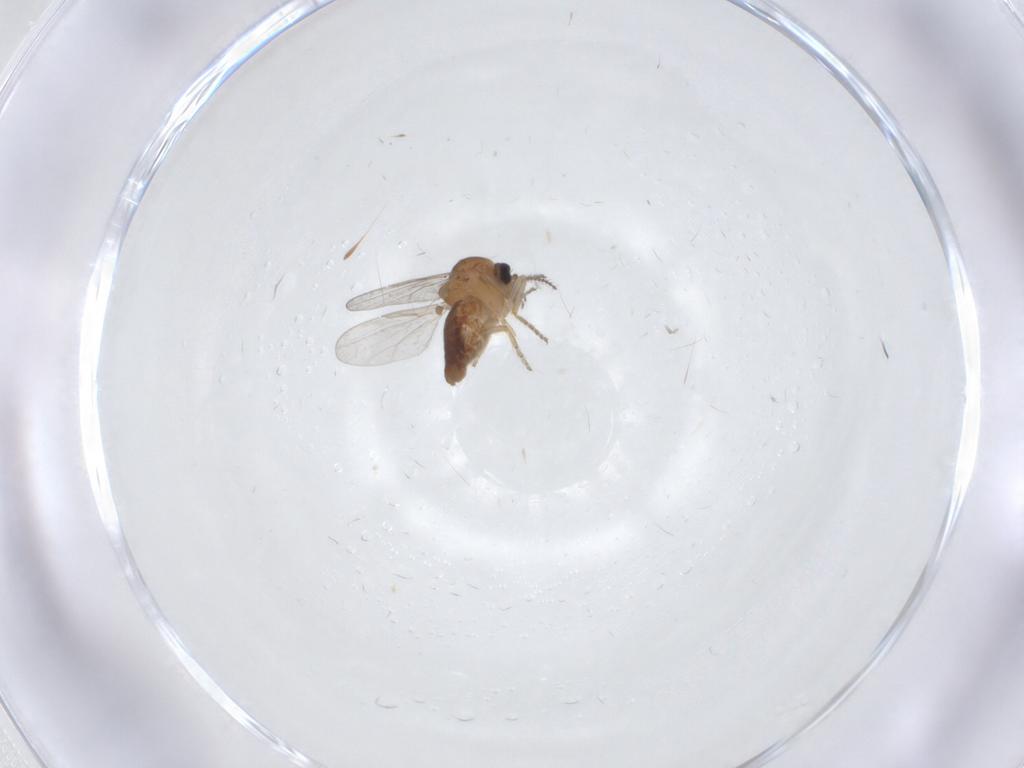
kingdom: Animalia
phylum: Arthropoda
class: Insecta
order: Diptera
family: Ceratopogonidae
